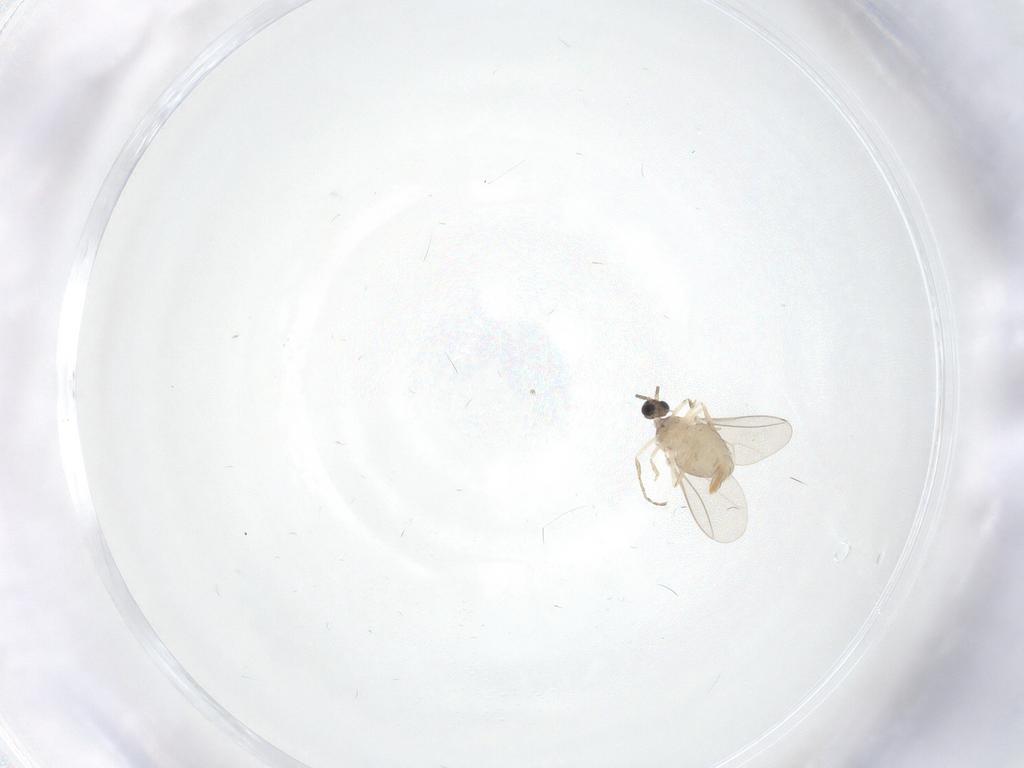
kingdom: Animalia
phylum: Arthropoda
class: Insecta
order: Diptera
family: Cecidomyiidae
